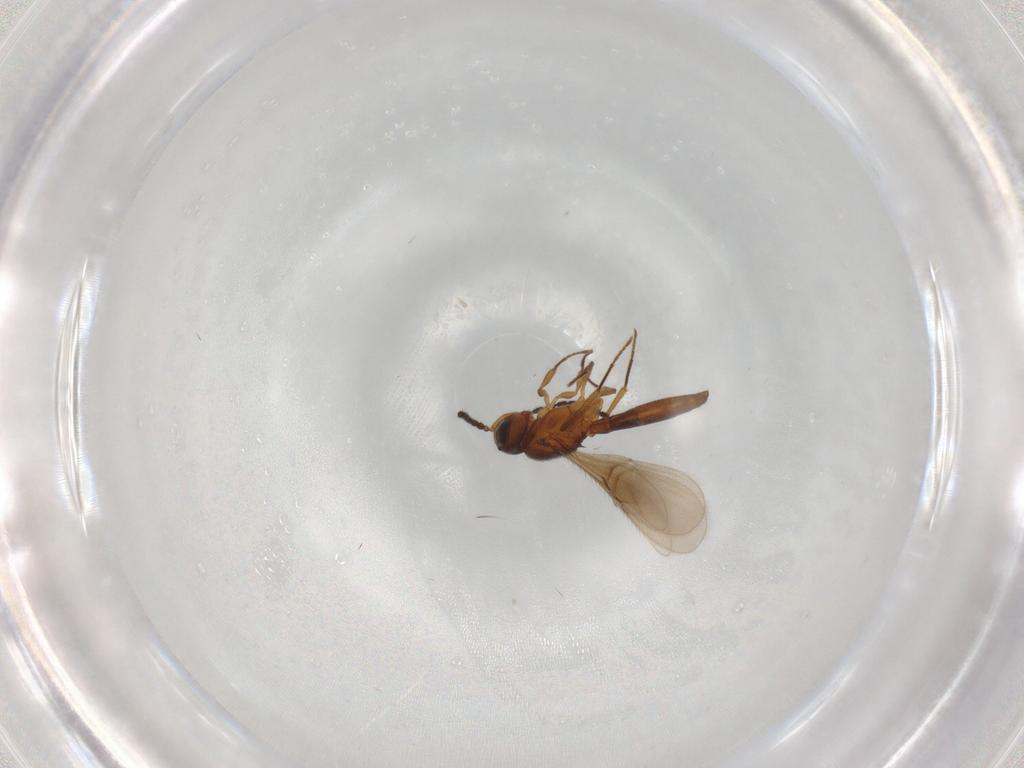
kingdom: Animalia
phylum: Arthropoda
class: Insecta
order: Hymenoptera
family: Scelionidae
